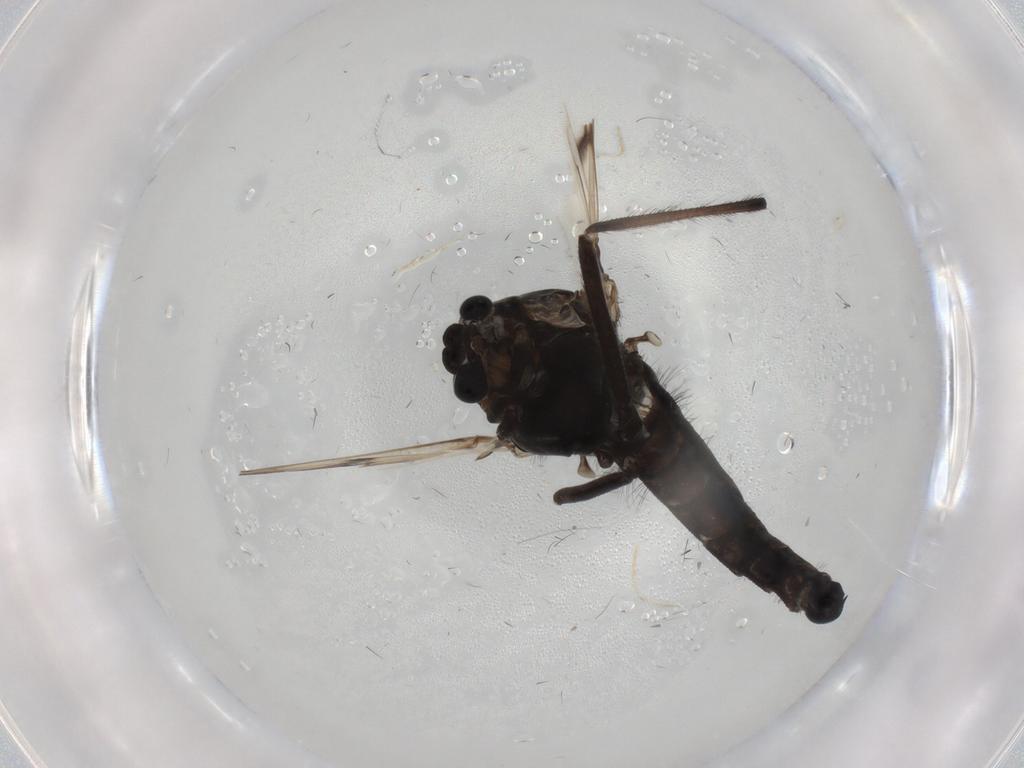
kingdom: Animalia
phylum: Arthropoda
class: Insecta
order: Diptera
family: Chironomidae
